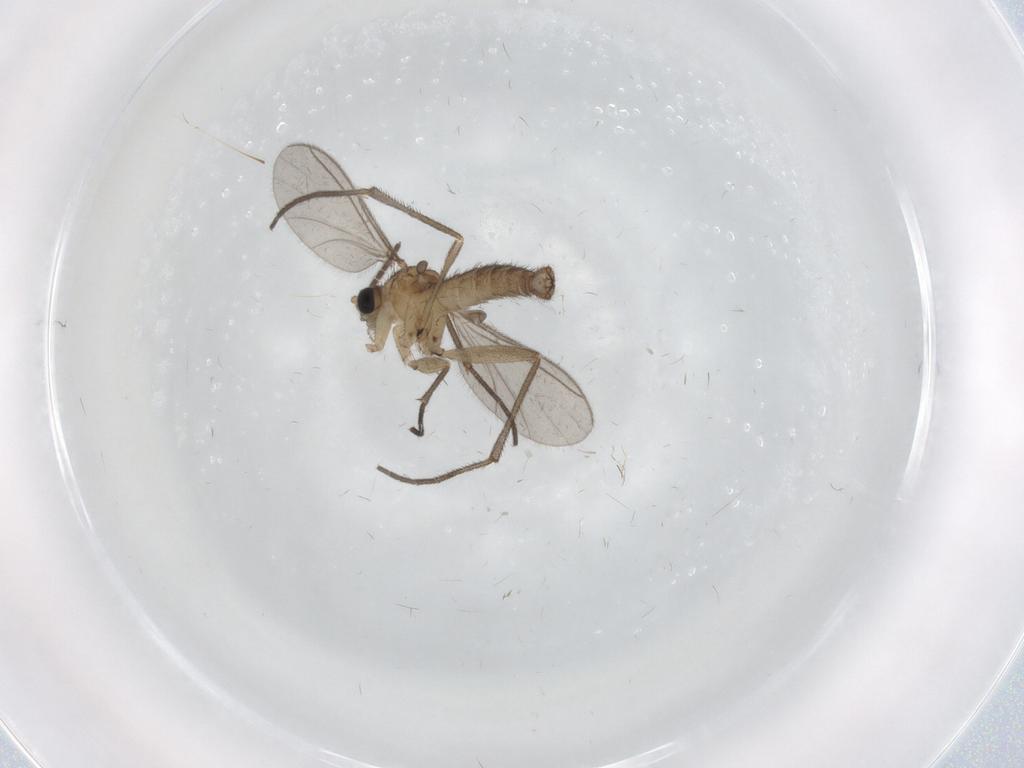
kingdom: Animalia
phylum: Arthropoda
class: Insecta
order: Diptera
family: Sciaridae
